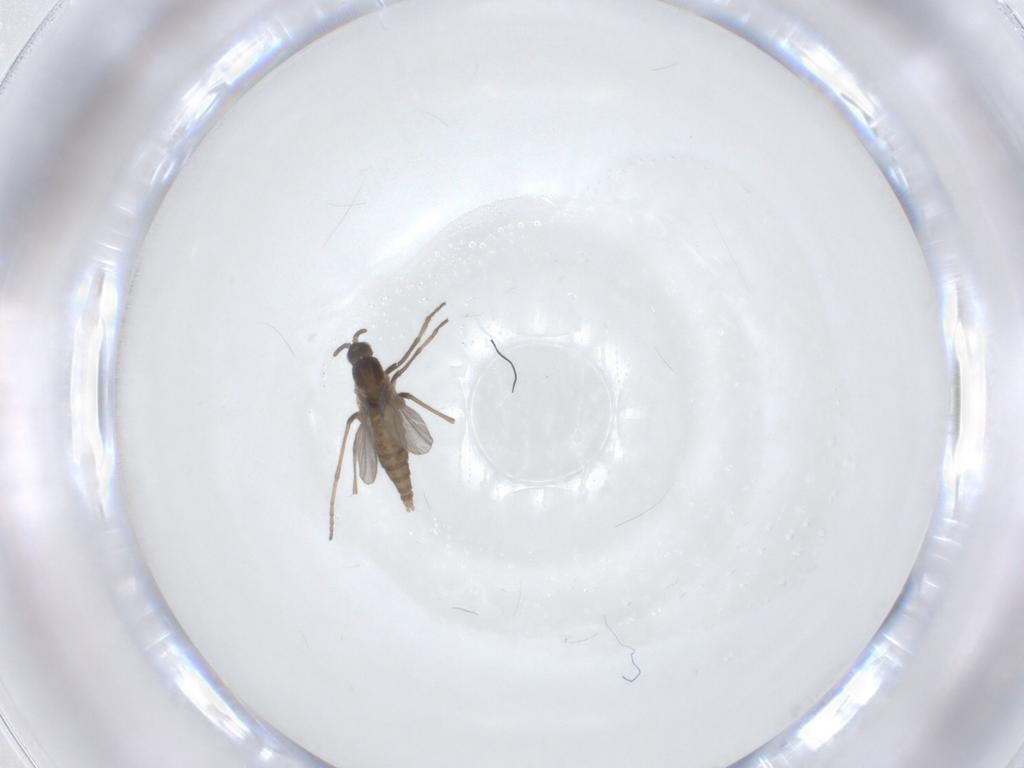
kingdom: Animalia
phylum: Arthropoda
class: Insecta
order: Diptera
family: Cecidomyiidae
